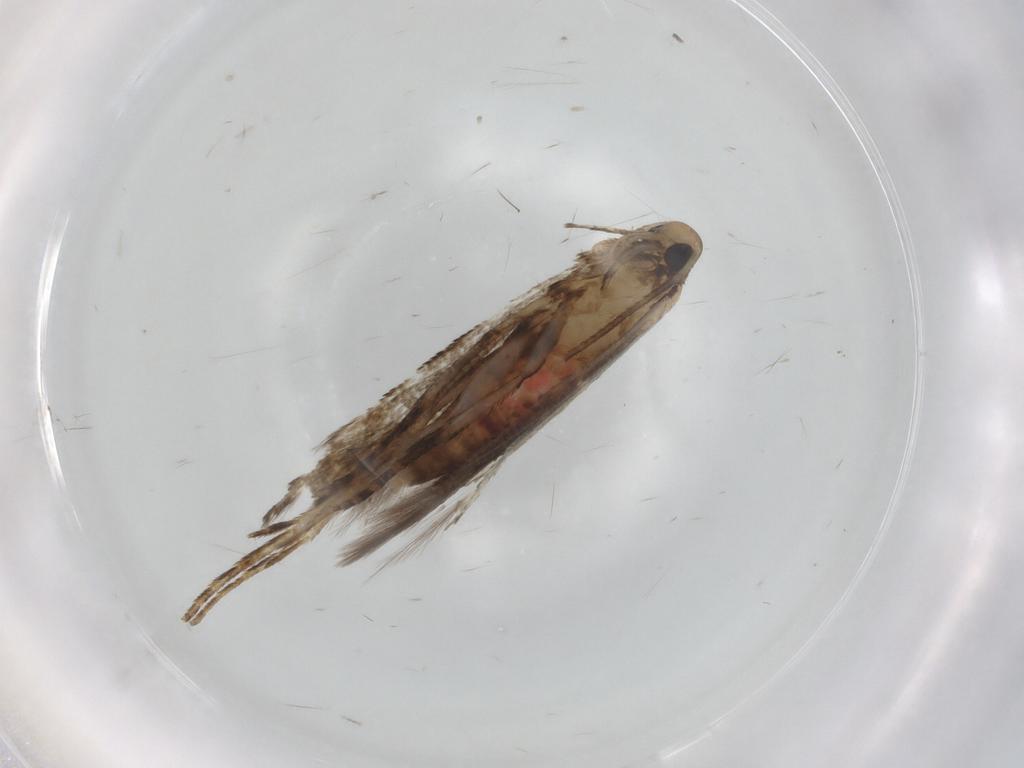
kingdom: Animalia
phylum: Arthropoda
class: Insecta
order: Lepidoptera
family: Cosmopterigidae
